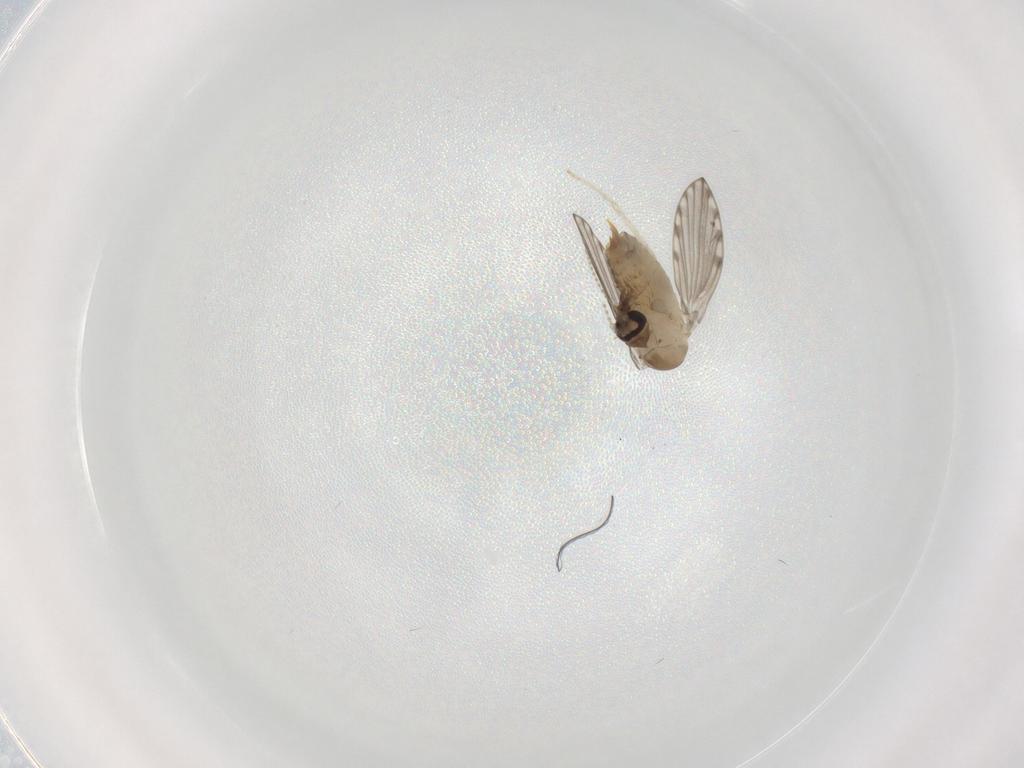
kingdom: Animalia
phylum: Arthropoda
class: Insecta
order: Diptera
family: Psychodidae
